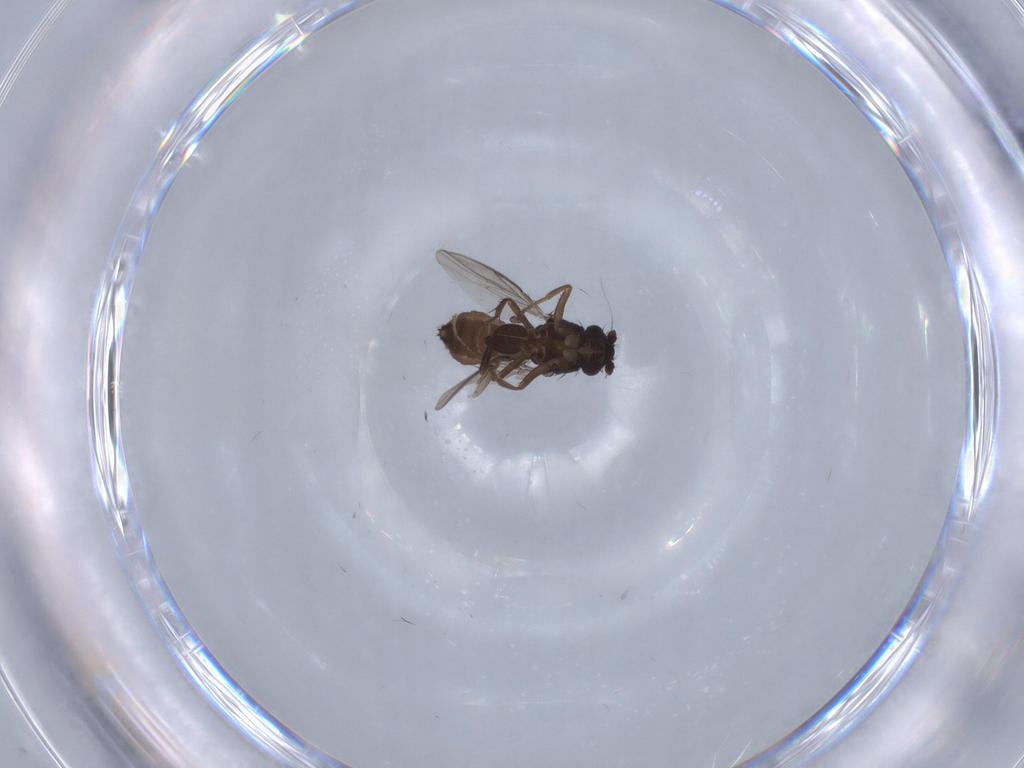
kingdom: Animalia
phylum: Arthropoda
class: Insecta
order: Diptera
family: Sphaeroceridae
